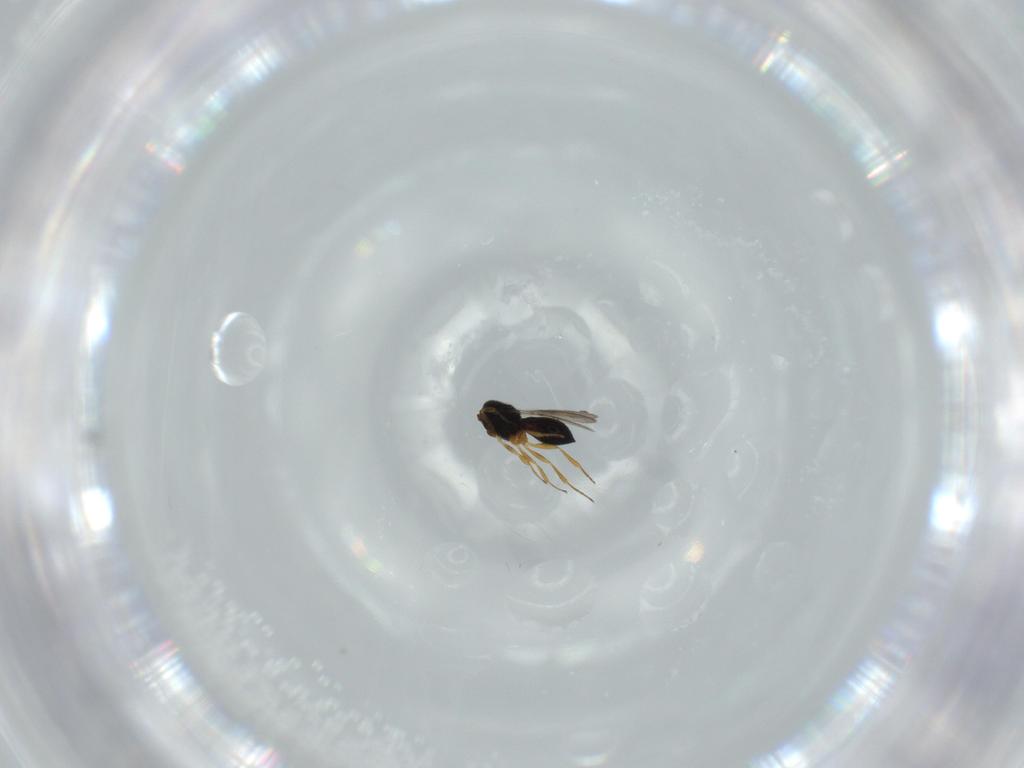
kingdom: Animalia
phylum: Arthropoda
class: Insecta
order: Hymenoptera
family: Scelionidae
